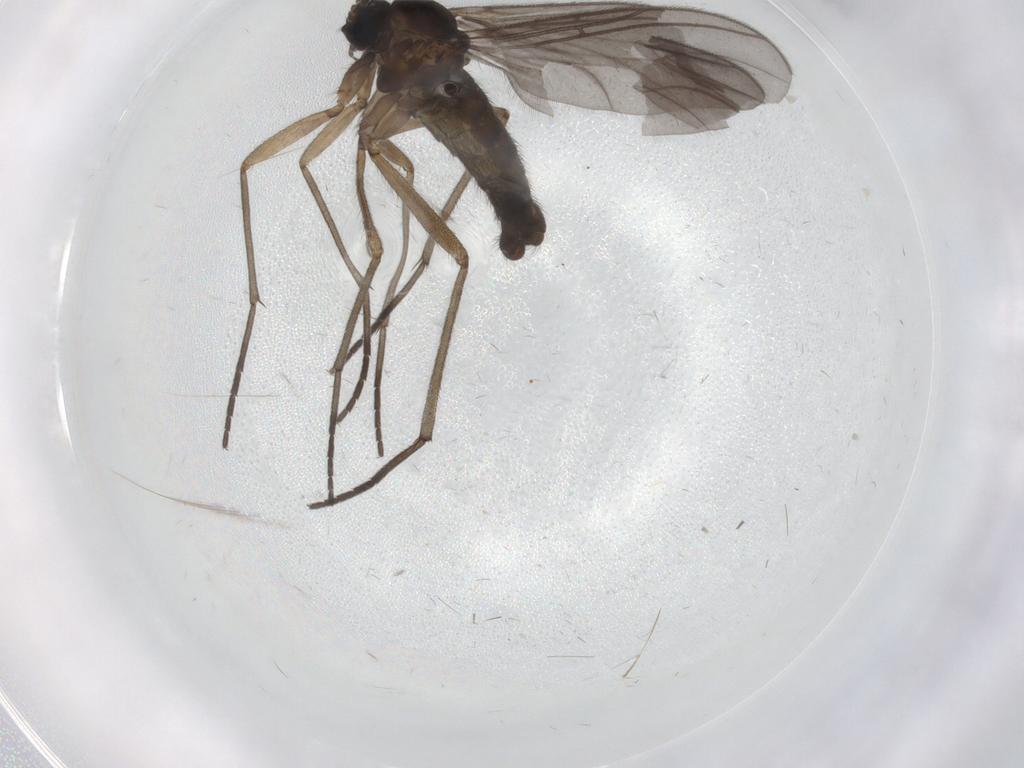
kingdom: Animalia
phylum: Arthropoda
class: Insecta
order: Diptera
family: Sciaridae
